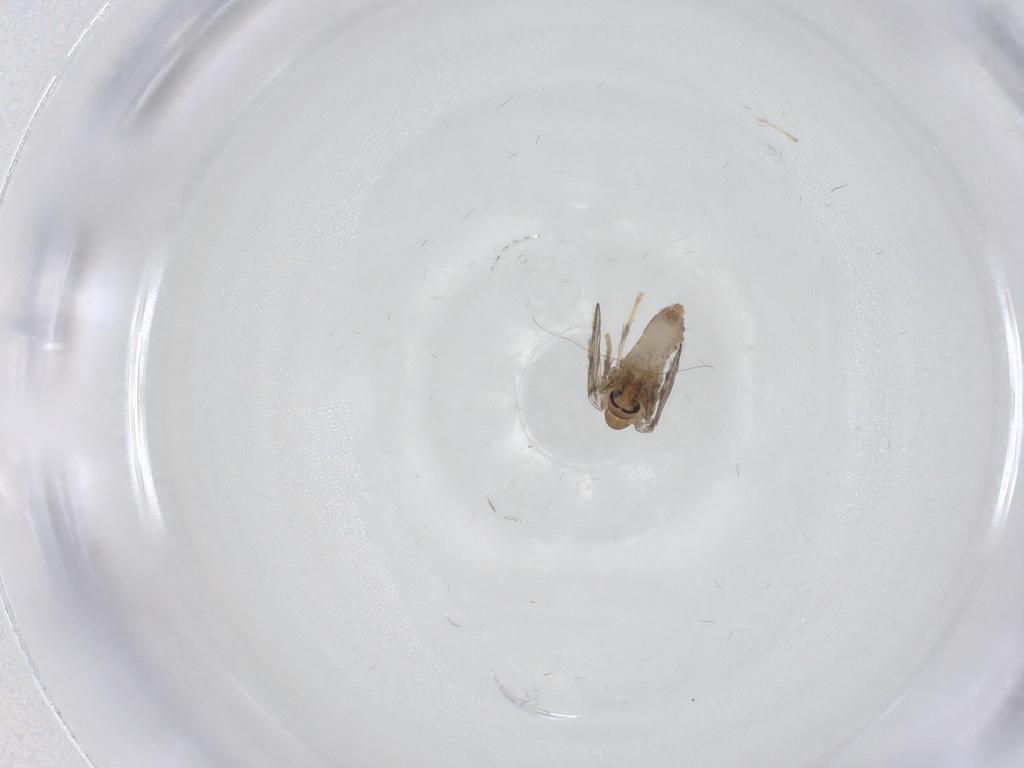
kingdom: Animalia
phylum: Arthropoda
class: Insecta
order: Diptera
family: Psychodidae
